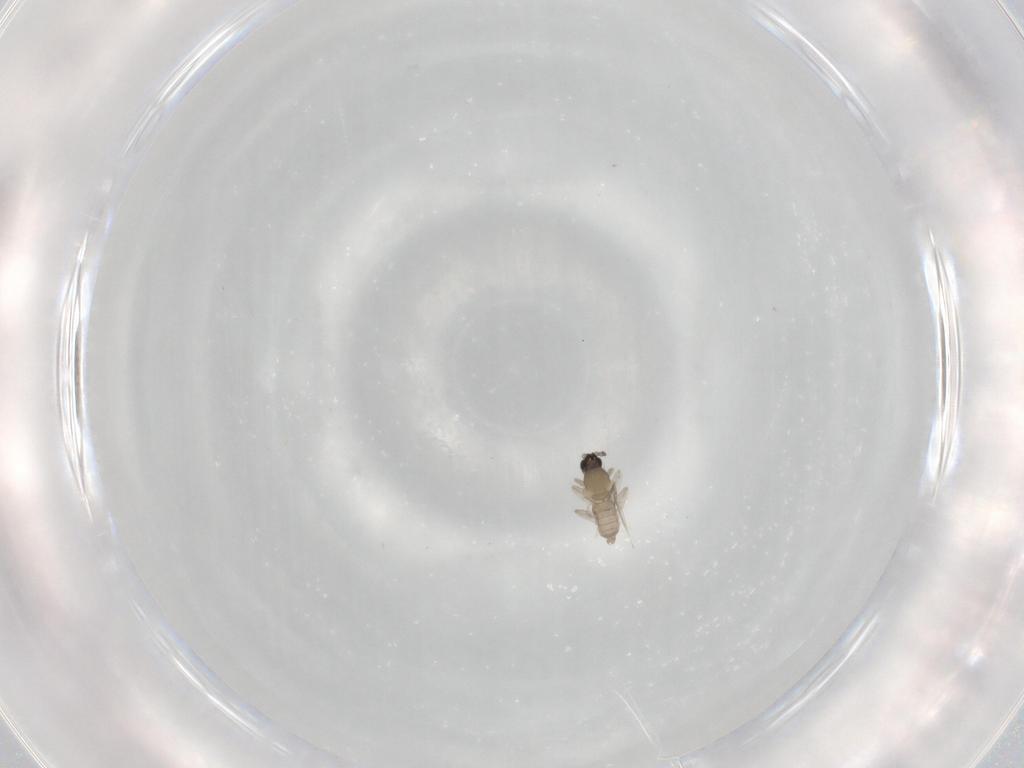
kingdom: Animalia
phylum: Arthropoda
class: Insecta
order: Diptera
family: Cecidomyiidae
